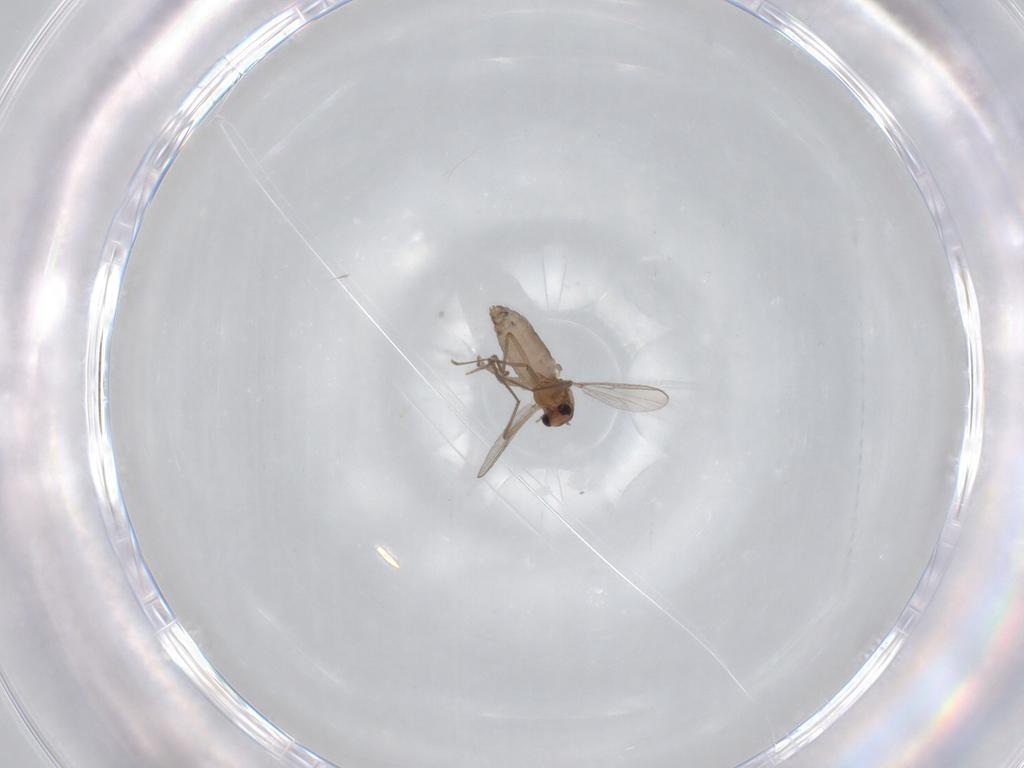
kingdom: Animalia
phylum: Arthropoda
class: Insecta
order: Diptera
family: Chironomidae
